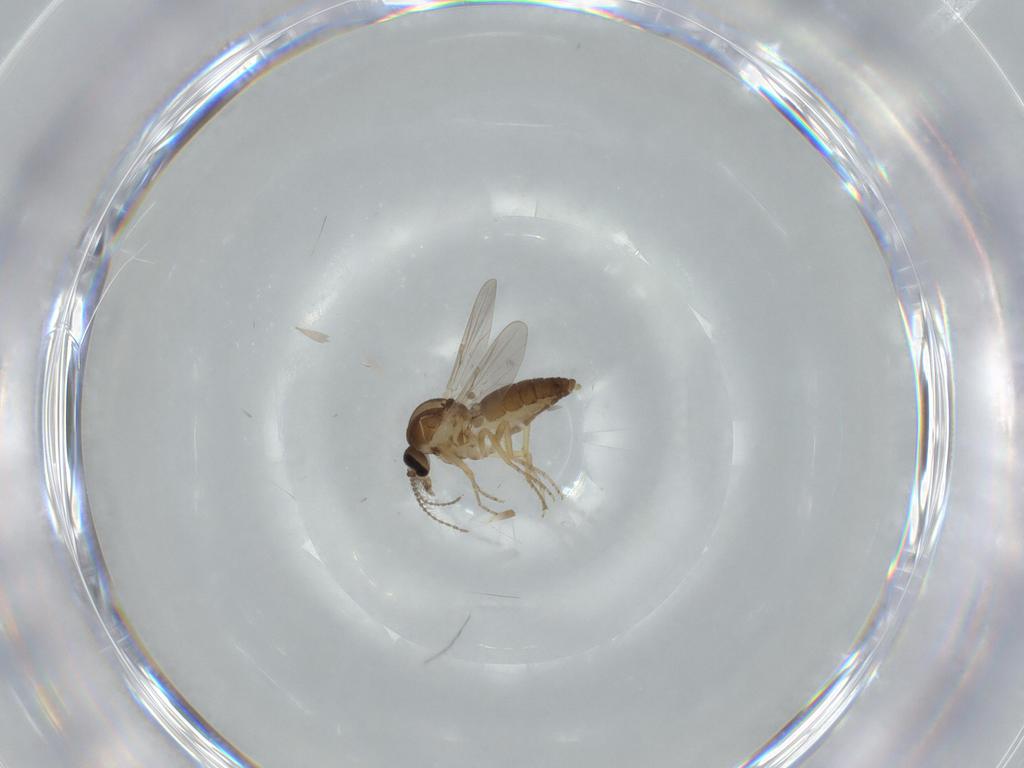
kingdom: Animalia
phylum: Arthropoda
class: Insecta
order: Diptera
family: Ceratopogonidae
